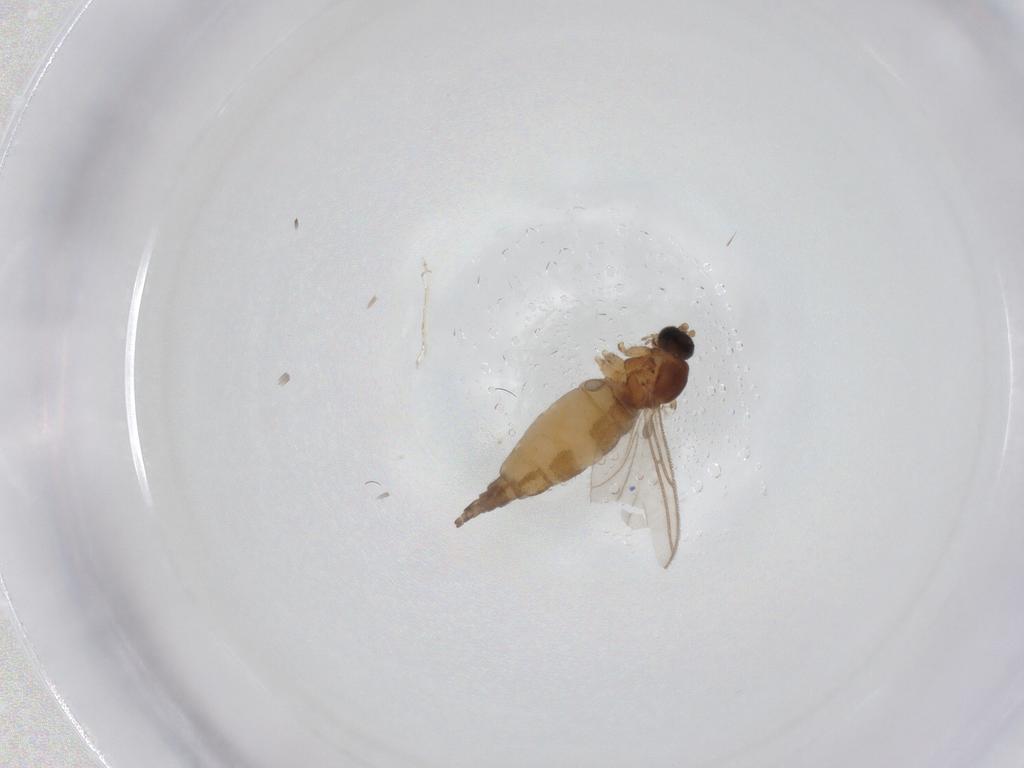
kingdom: Animalia
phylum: Arthropoda
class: Insecta
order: Diptera
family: Sciaridae
